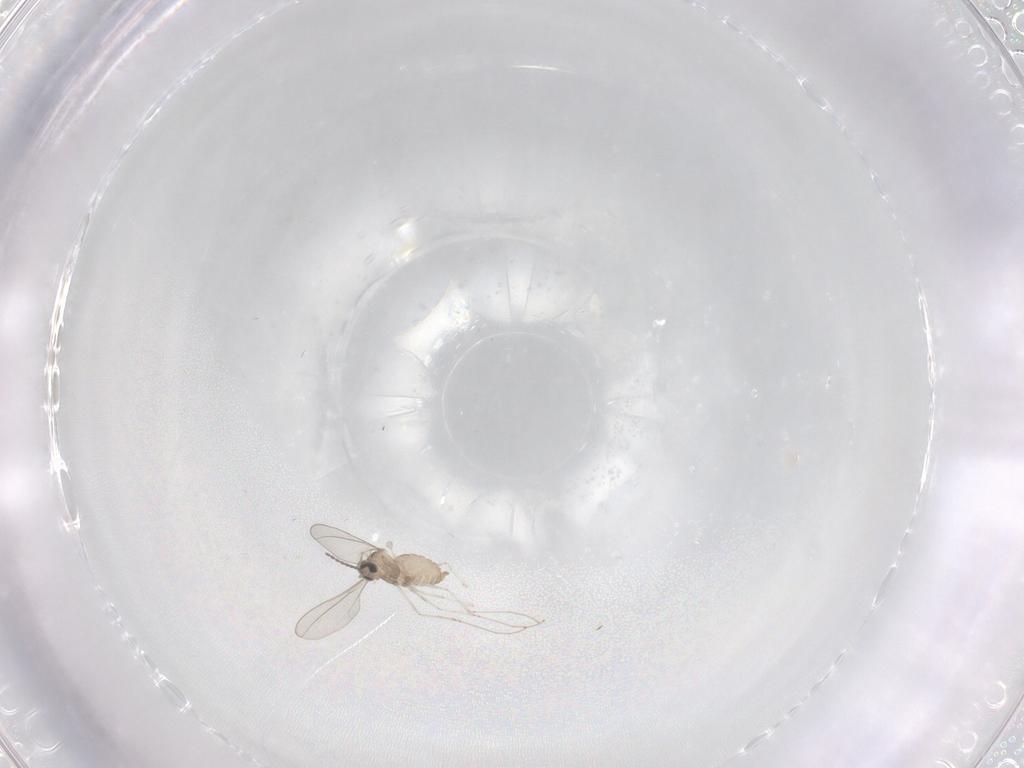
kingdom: Animalia
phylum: Arthropoda
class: Insecta
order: Diptera
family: Cecidomyiidae
